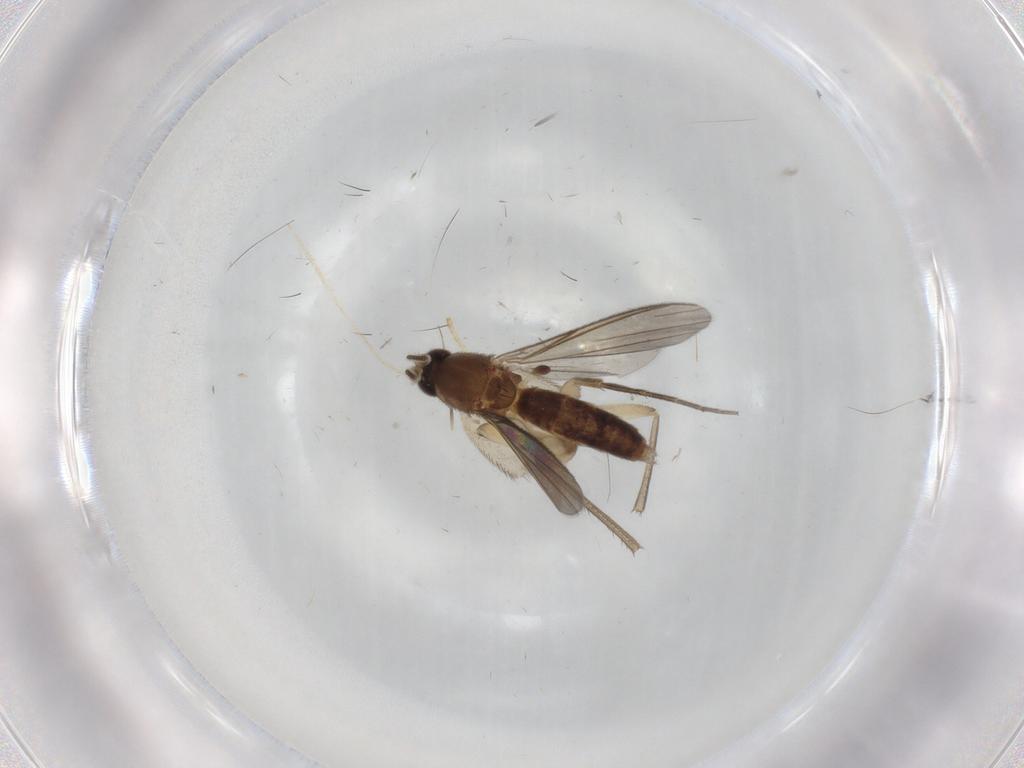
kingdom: Animalia
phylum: Arthropoda
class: Insecta
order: Diptera
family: Mycetophilidae
